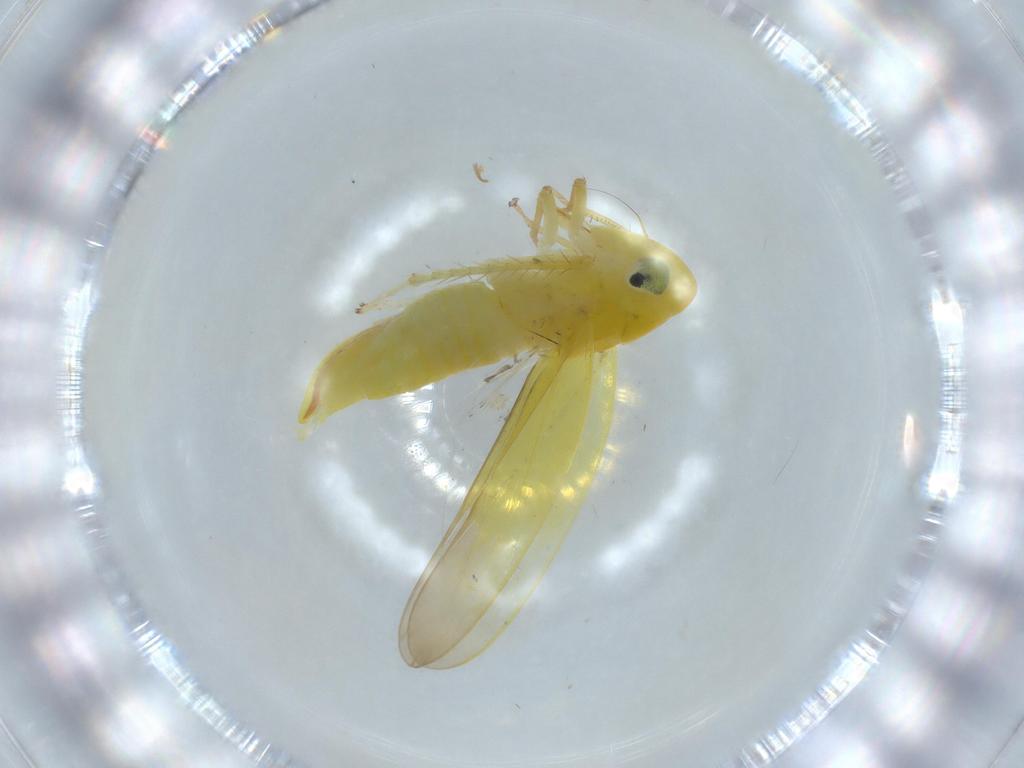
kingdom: Animalia
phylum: Arthropoda
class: Insecta
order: Hemiptera
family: Cicadellidae
